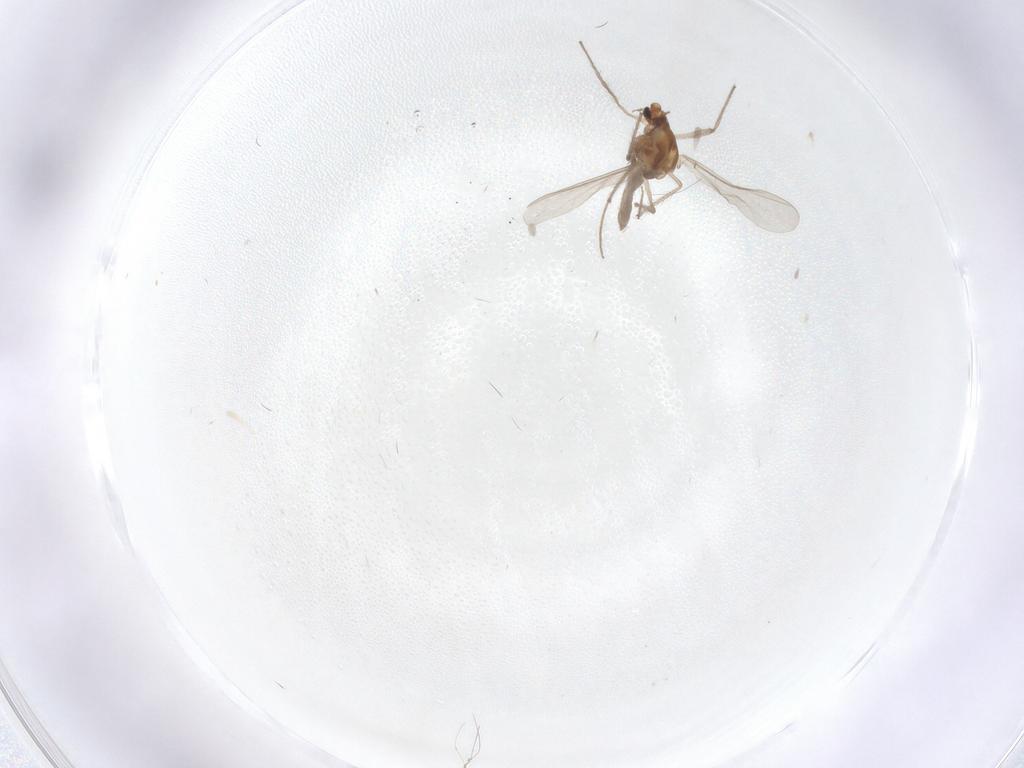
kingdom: Animalia
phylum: Arthropoda
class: Insecta
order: Diptera
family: Chironomidae
